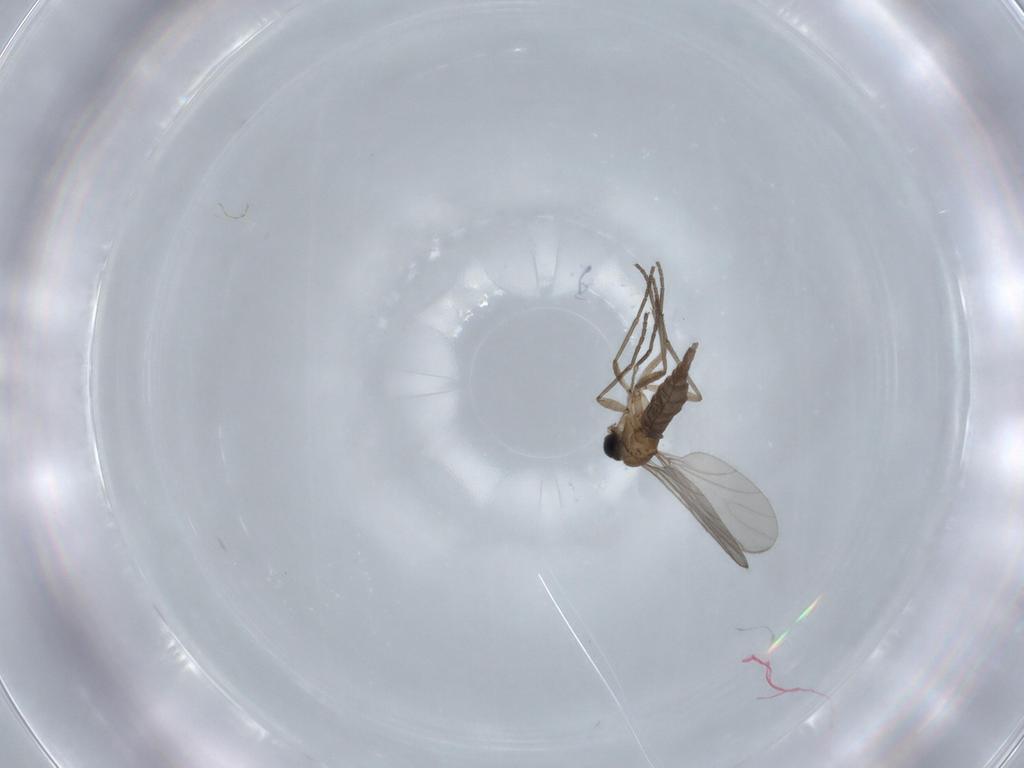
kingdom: Animalia
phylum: Arthropoda
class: Insecta
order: Diptera
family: Sciaridae
